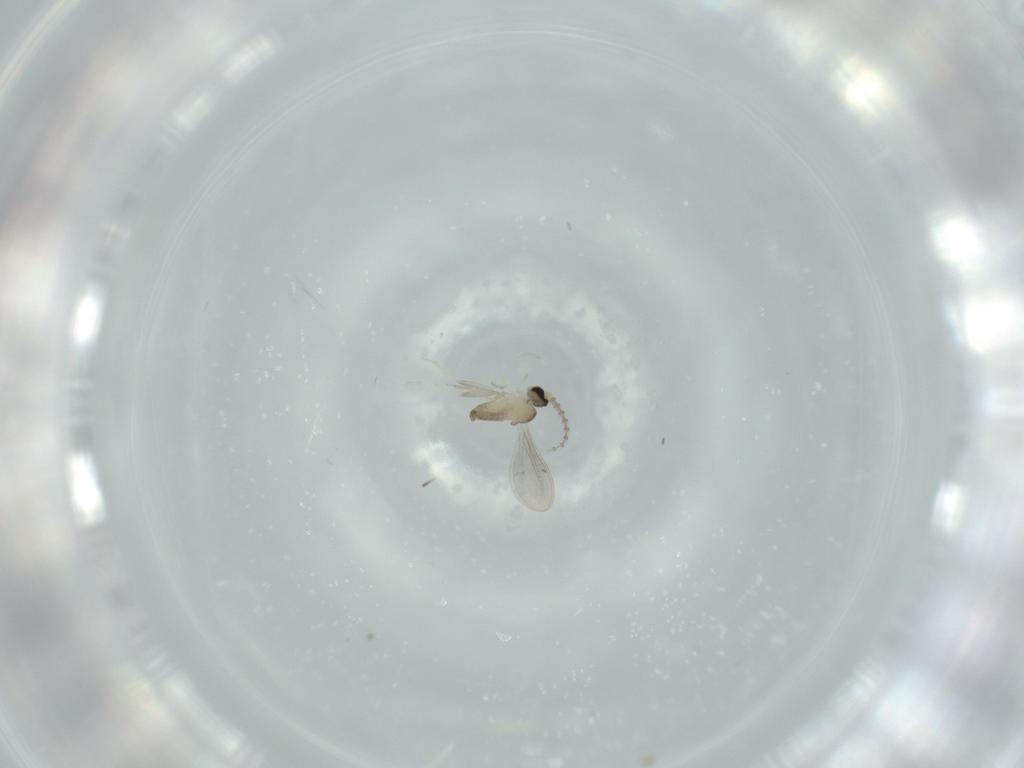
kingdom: Animalia
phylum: Arthropoda
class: Insecta
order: Diptera
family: Cecidomyiidae
